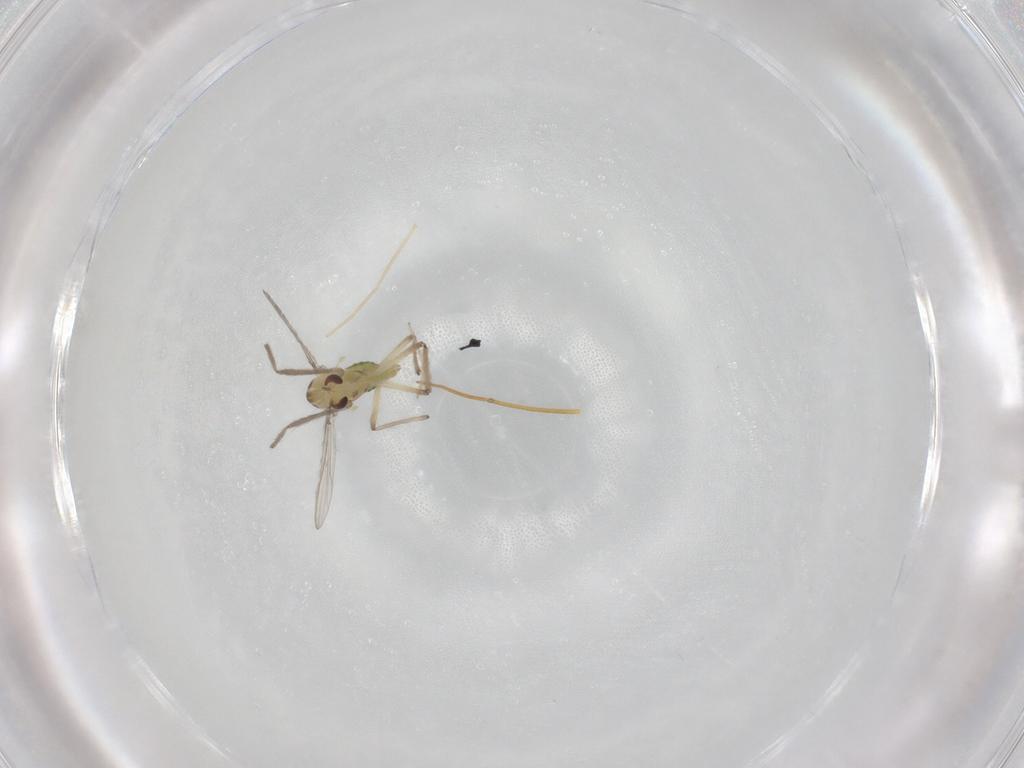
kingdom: Animalia
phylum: Arthropoda
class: Insecta
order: Diptera
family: Chironomidae
